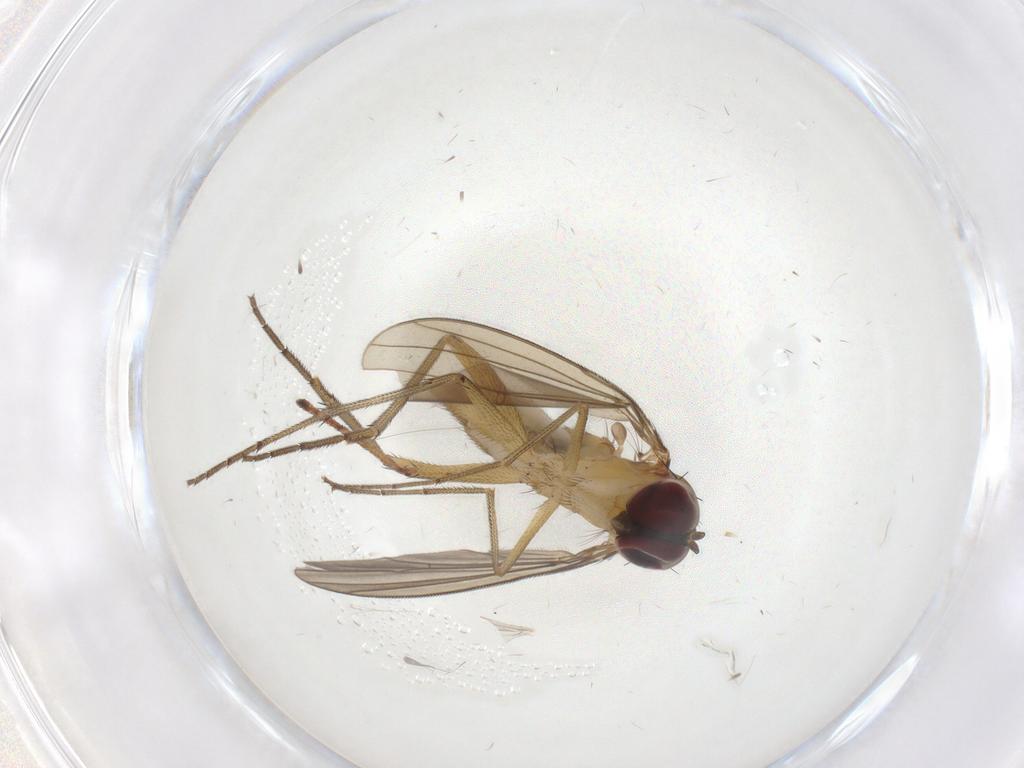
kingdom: Animalia
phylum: Arthropoda
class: Insecta
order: Diptera
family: Dolichopodidae
